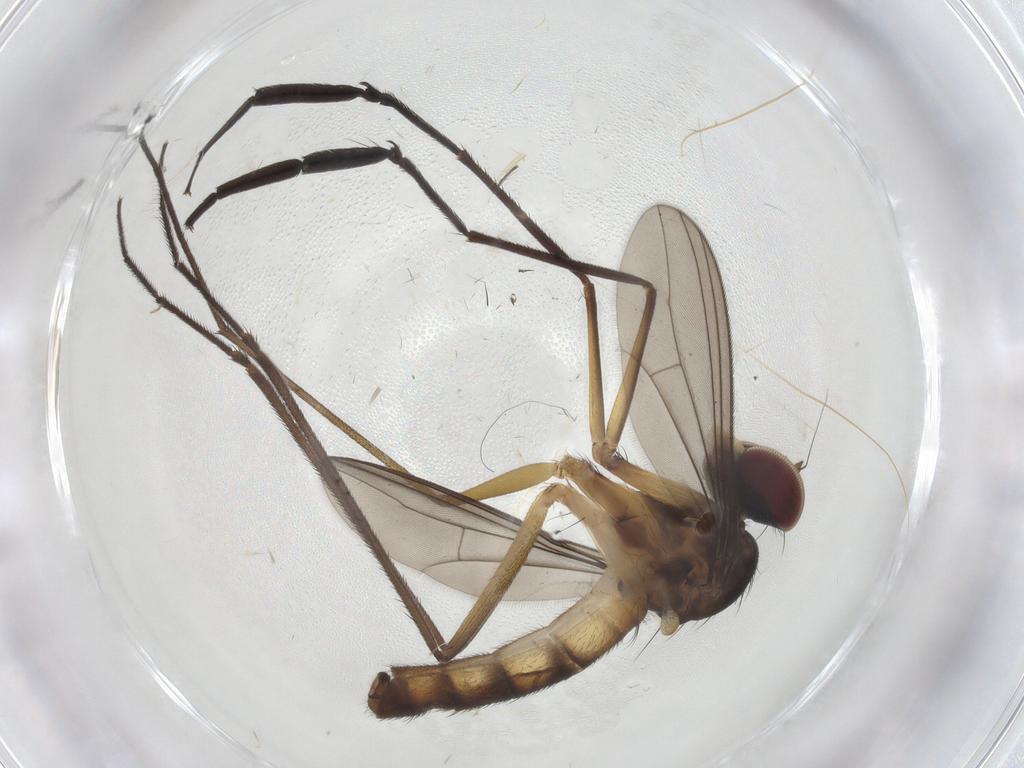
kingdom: Animalia
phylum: Arthropoda
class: Insecta
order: Diptera
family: Dolichopodidae
